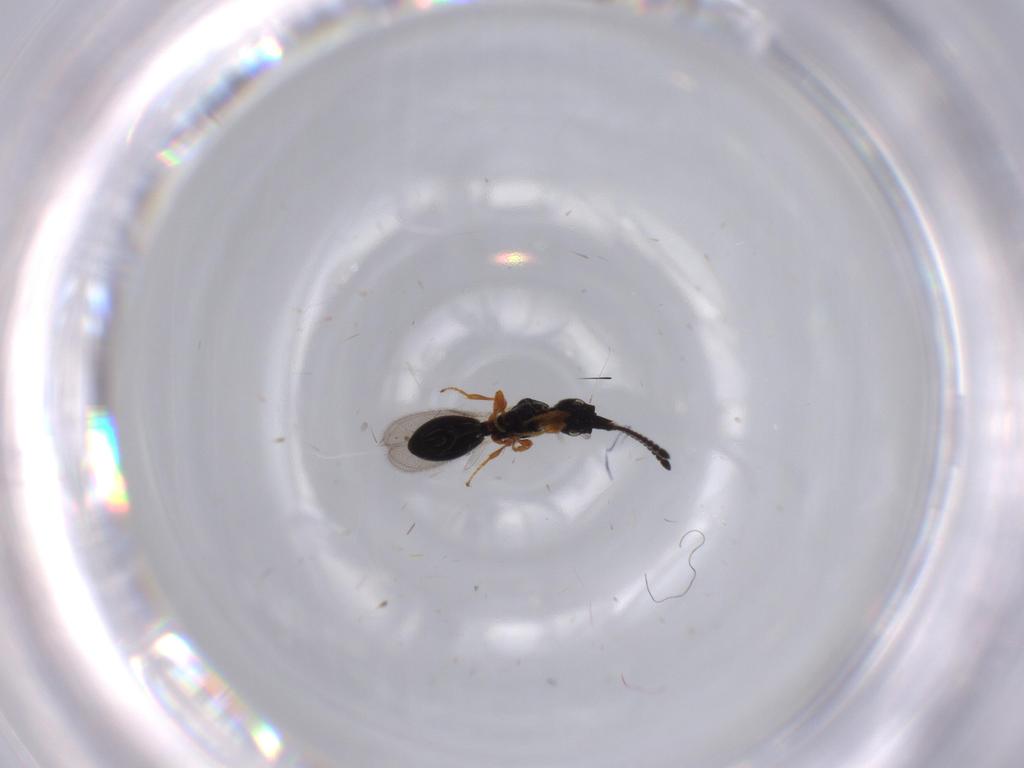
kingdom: Animalia
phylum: Arthropoda
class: Insecta
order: Hymenoptera
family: Diapriidae
